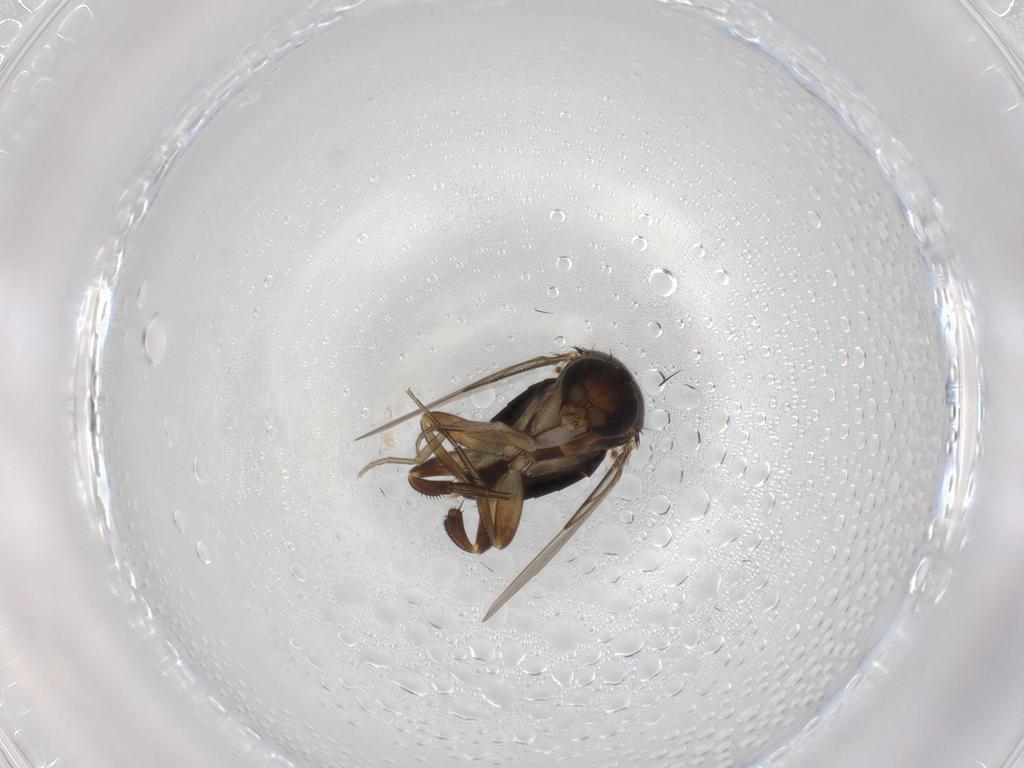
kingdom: Animalia
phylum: Arthropoda
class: Insecta
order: Diptera
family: Phoridae
